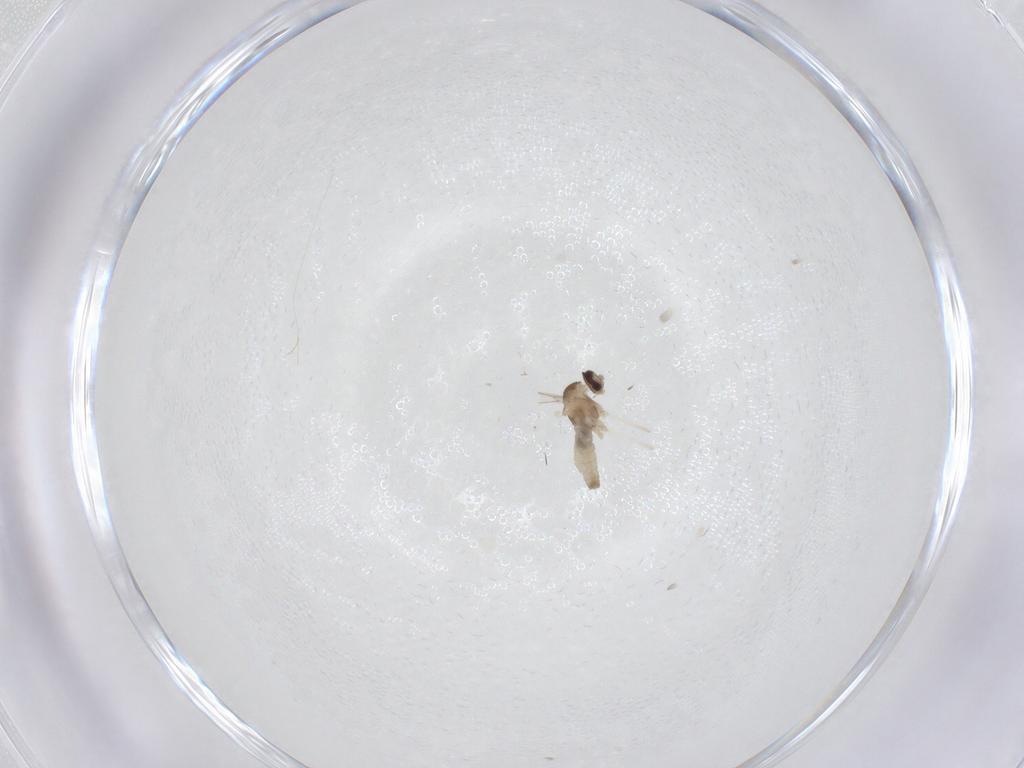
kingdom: Animalia
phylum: Arthropoda
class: Insecta
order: Diptera
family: Cecidomyiidae
